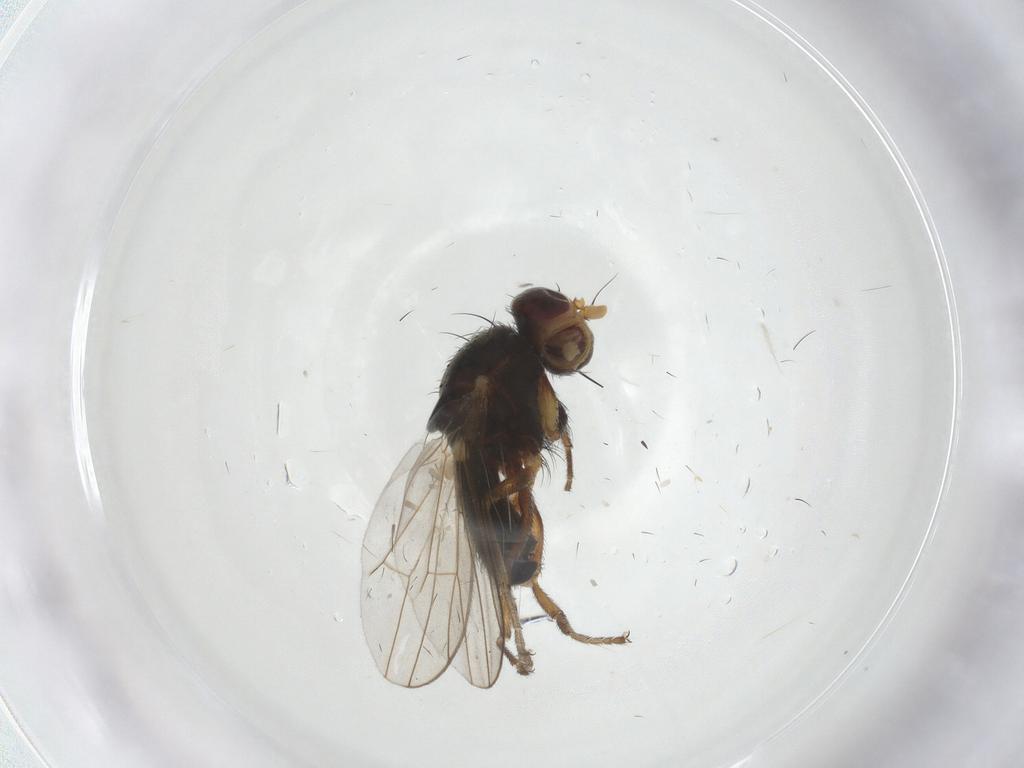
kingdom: Animalia
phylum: Arthropoda
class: Insecta
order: Diptera
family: Heleomyzidae
